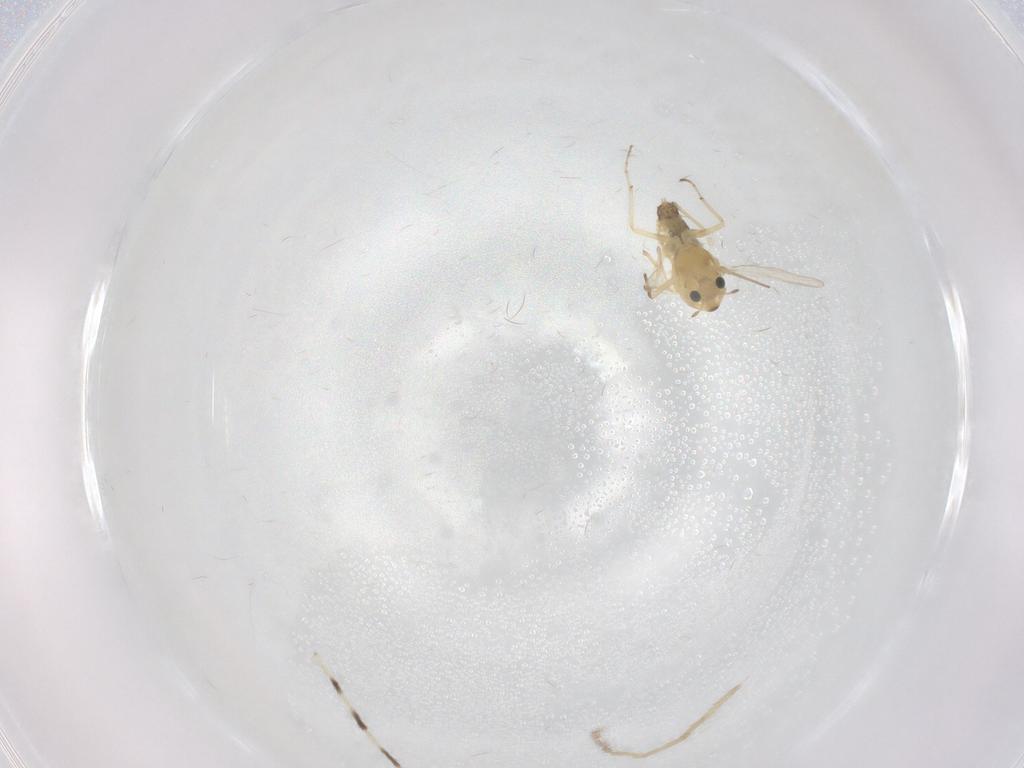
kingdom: Animalia
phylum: Arthropoda
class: Insecta
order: Diptera
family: Chironomidae
